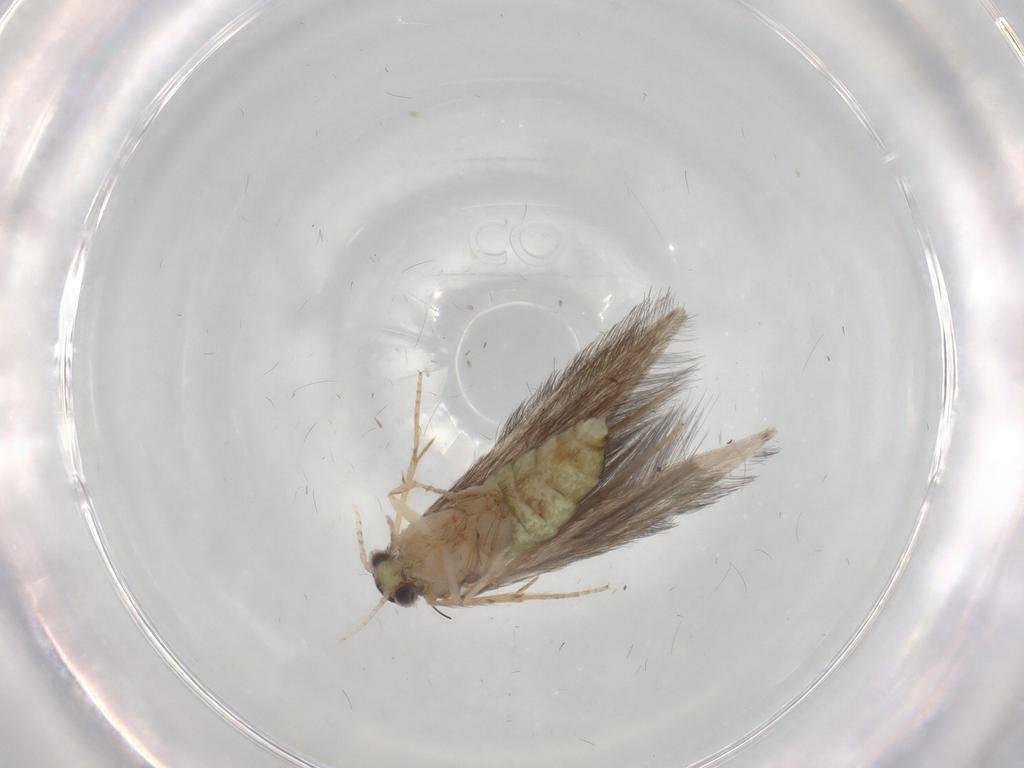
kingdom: Animalia
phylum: Arthropoda
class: Insecta
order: Trichoptera
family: Hydroptilidae
